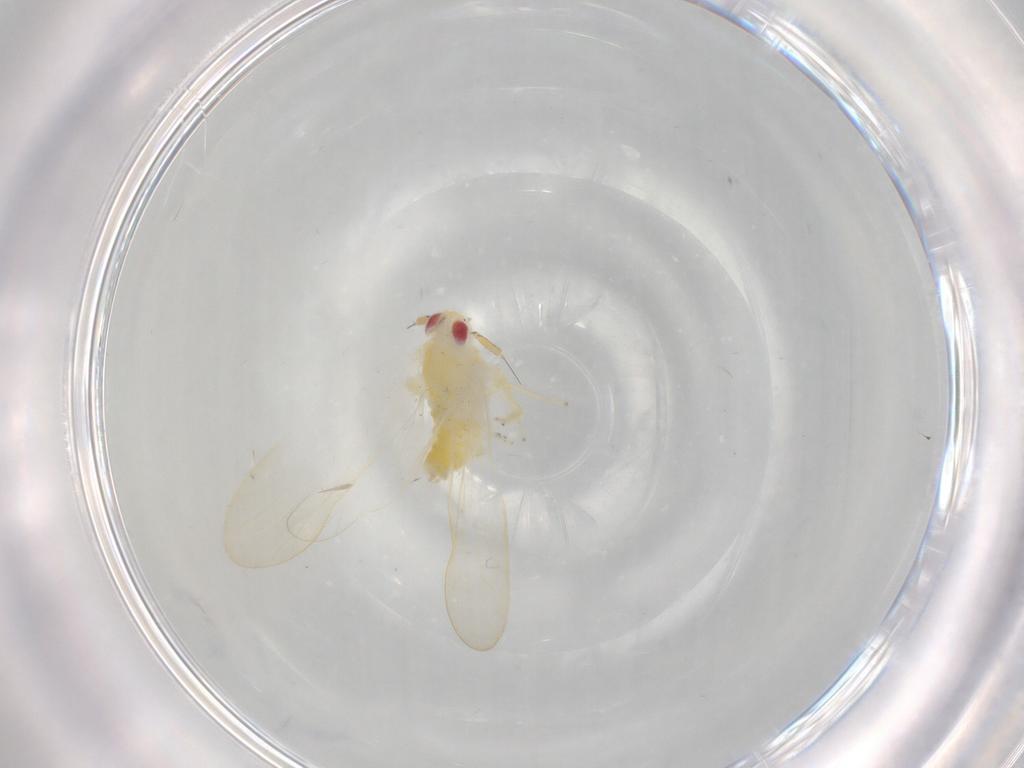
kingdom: Animalia
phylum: Arthropoda
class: Insecta
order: Hemiptera
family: Delphacidae
